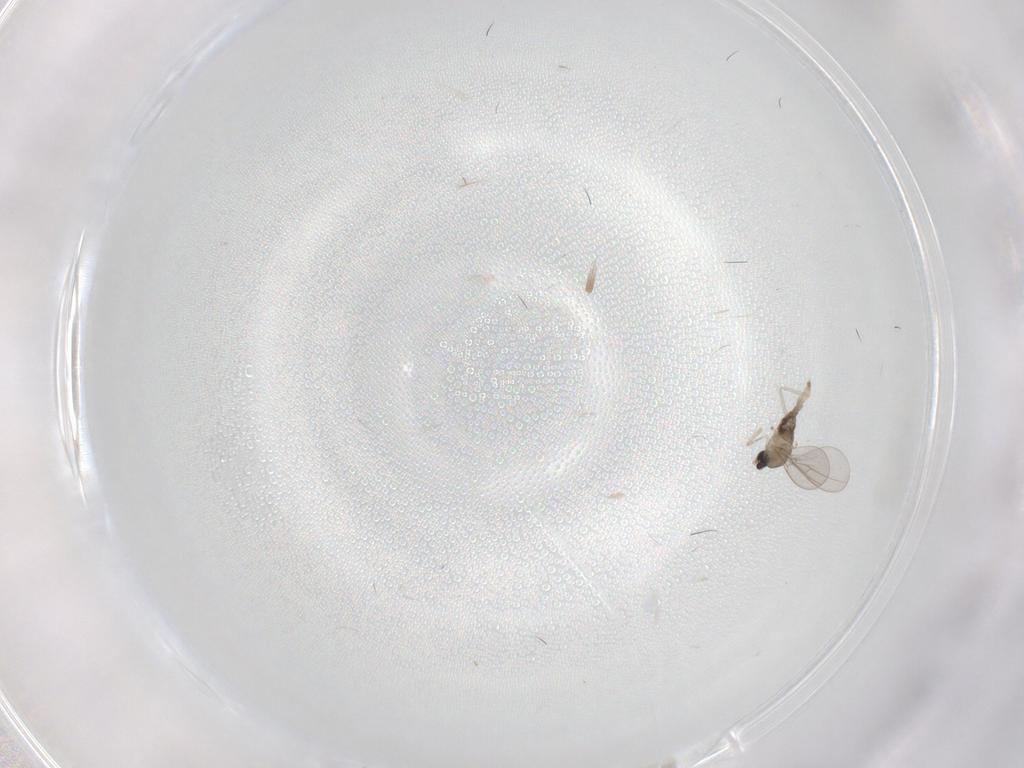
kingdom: Animalia
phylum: Arthropoda
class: Insecta
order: Diptera
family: Cecidomyiidae
